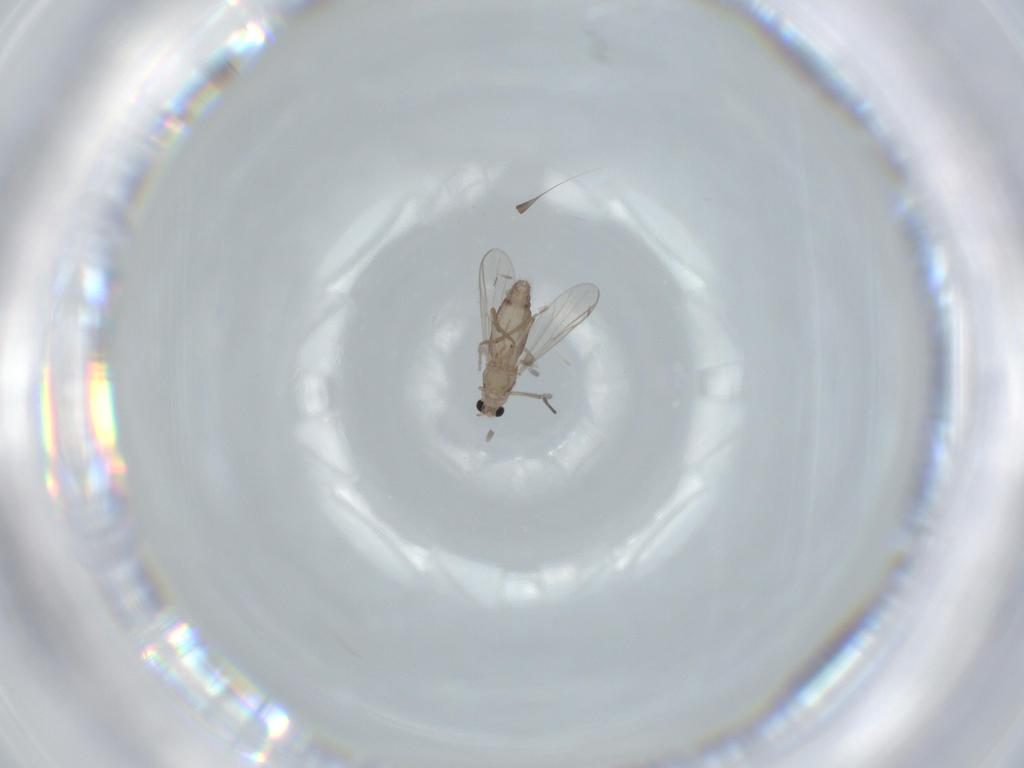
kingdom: Animalia
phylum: Arthropoda
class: Insecta
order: Diptera
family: Chironomidae
